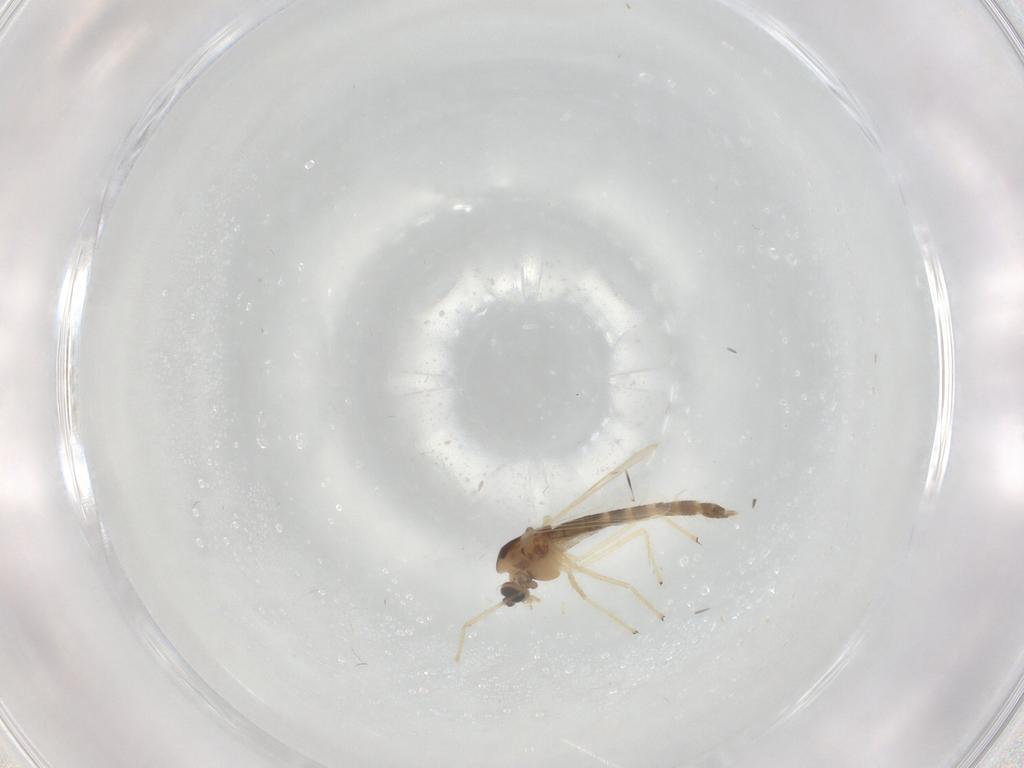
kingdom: Animalia
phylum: Arthropoda
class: Insecta
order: Diptera
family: Chironomidae
